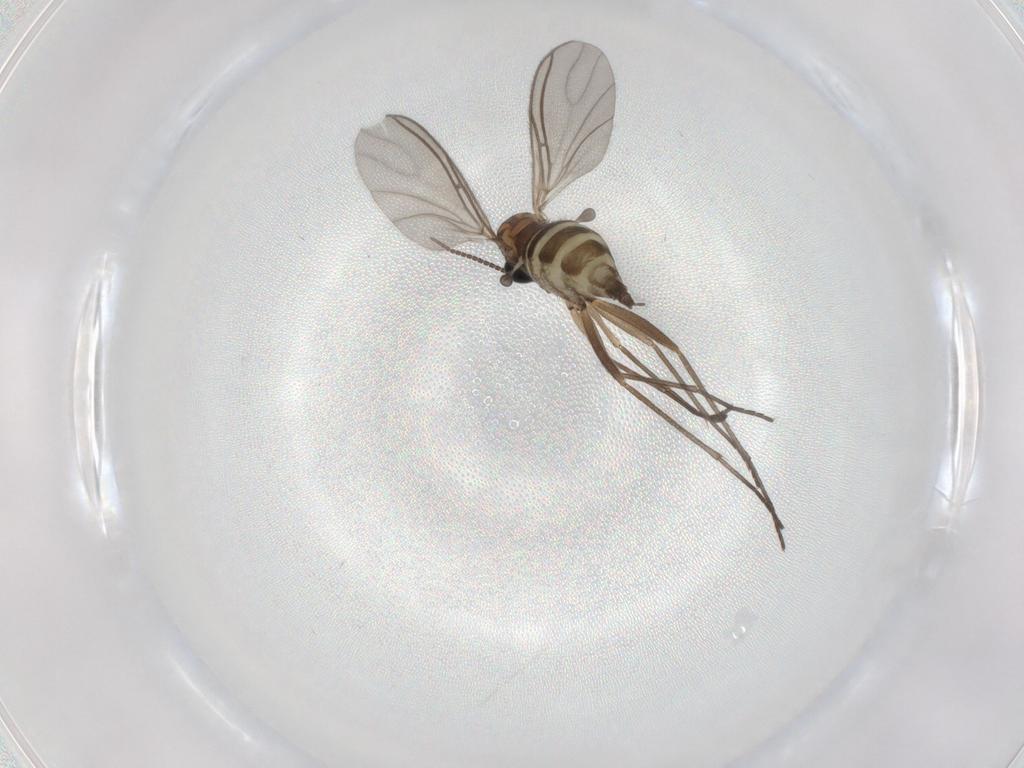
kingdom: Animalia
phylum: Arthropoda
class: Insecta
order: Diptera
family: Sciaridae
